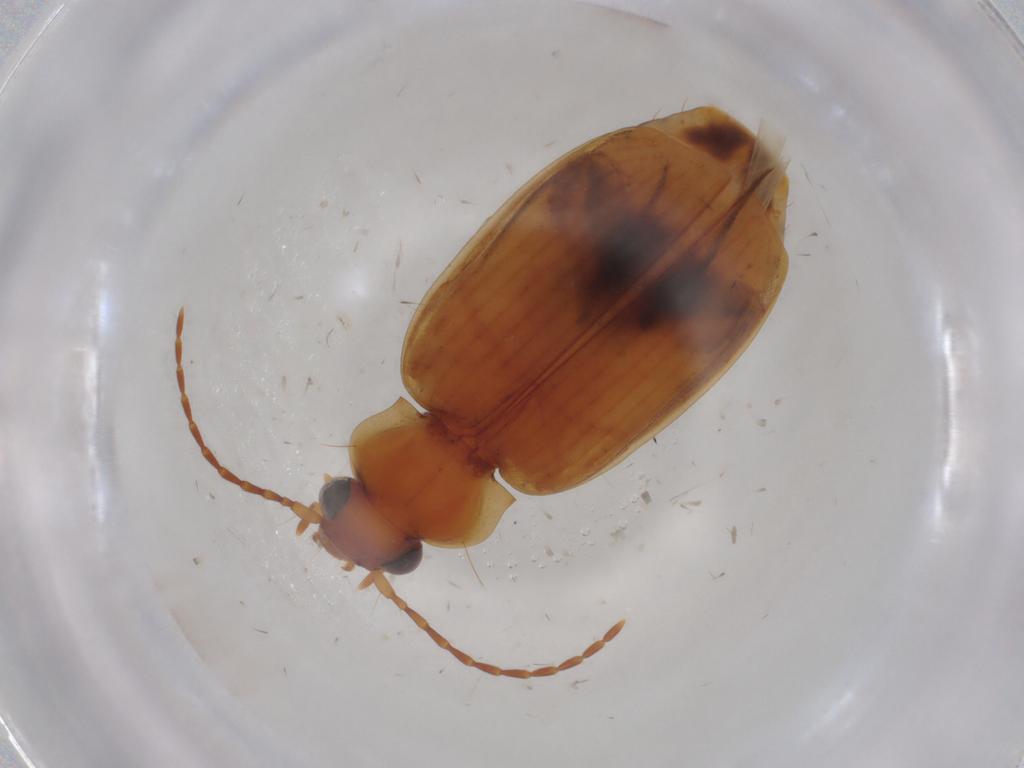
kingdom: Animalia
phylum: Arthropoda
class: Insecta
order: Coleoptera
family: Carabidae
